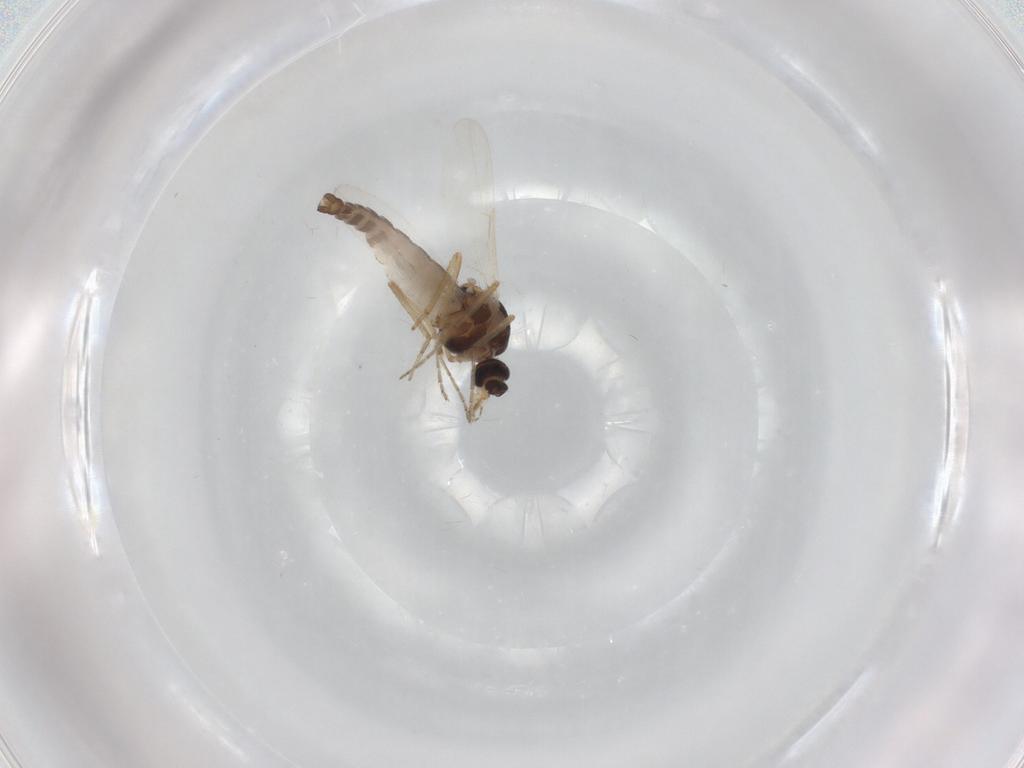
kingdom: Animalia
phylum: Arthropoda
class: Insecta
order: Diptera
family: Ceratopogonidae
